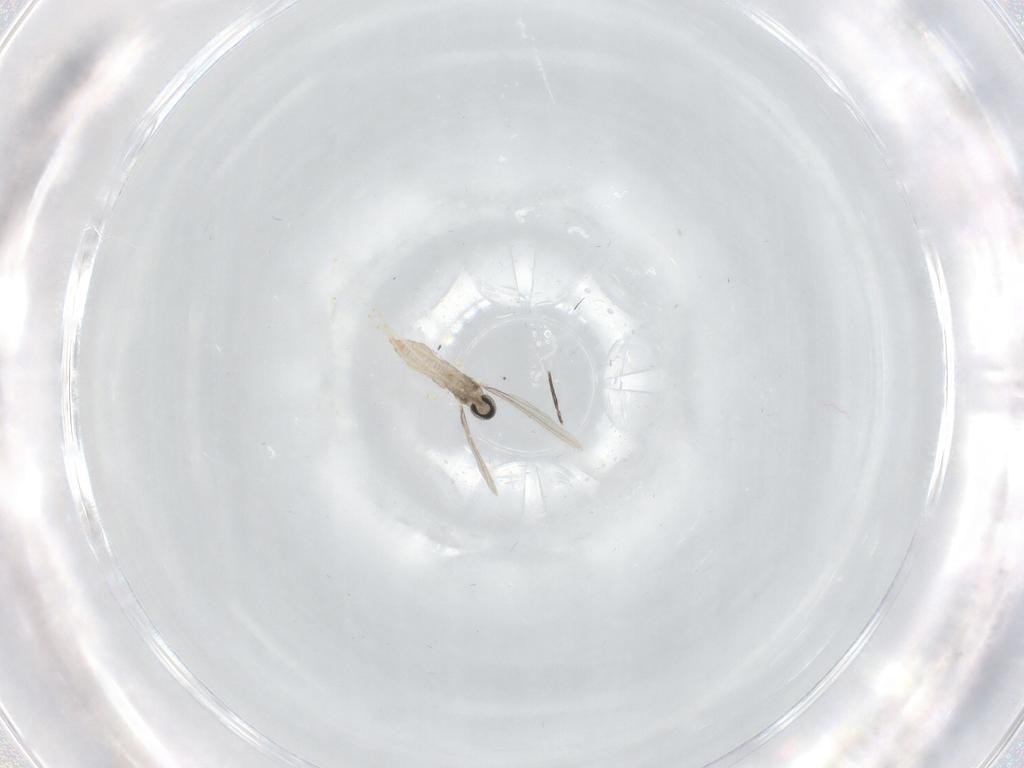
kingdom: Animalia
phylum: Arthropoda
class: Insecta
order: Diptera
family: Cecidomyiidae
